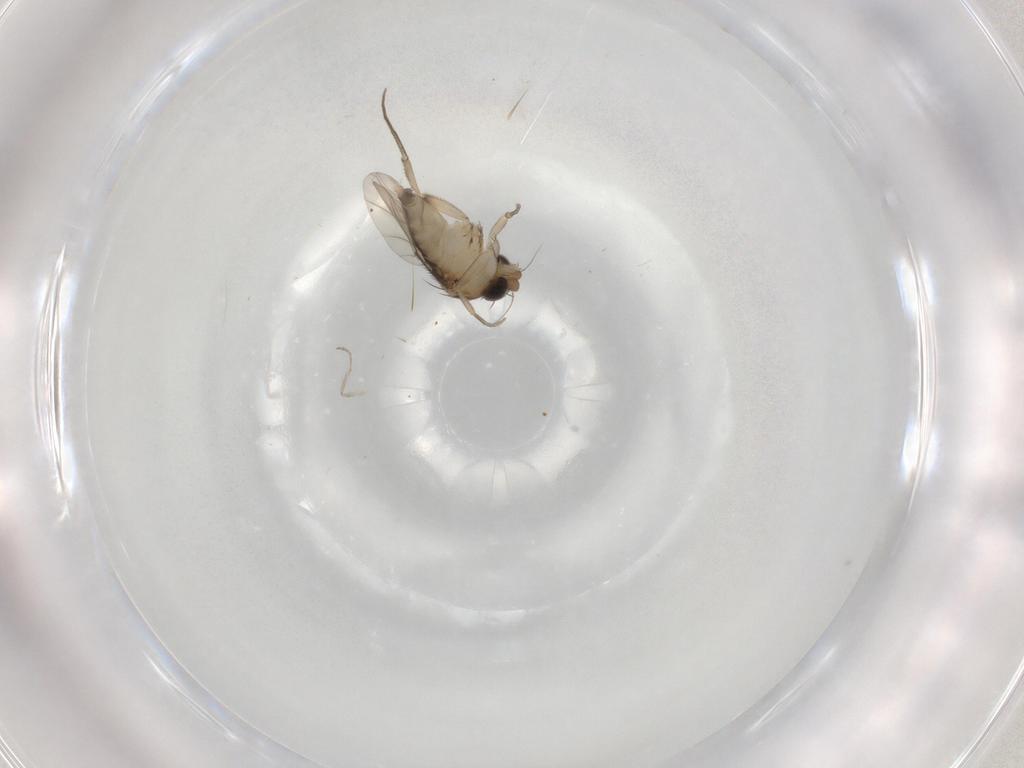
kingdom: Animalia
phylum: Arthropoda
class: Insecta
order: Diptera
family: Phoridae
